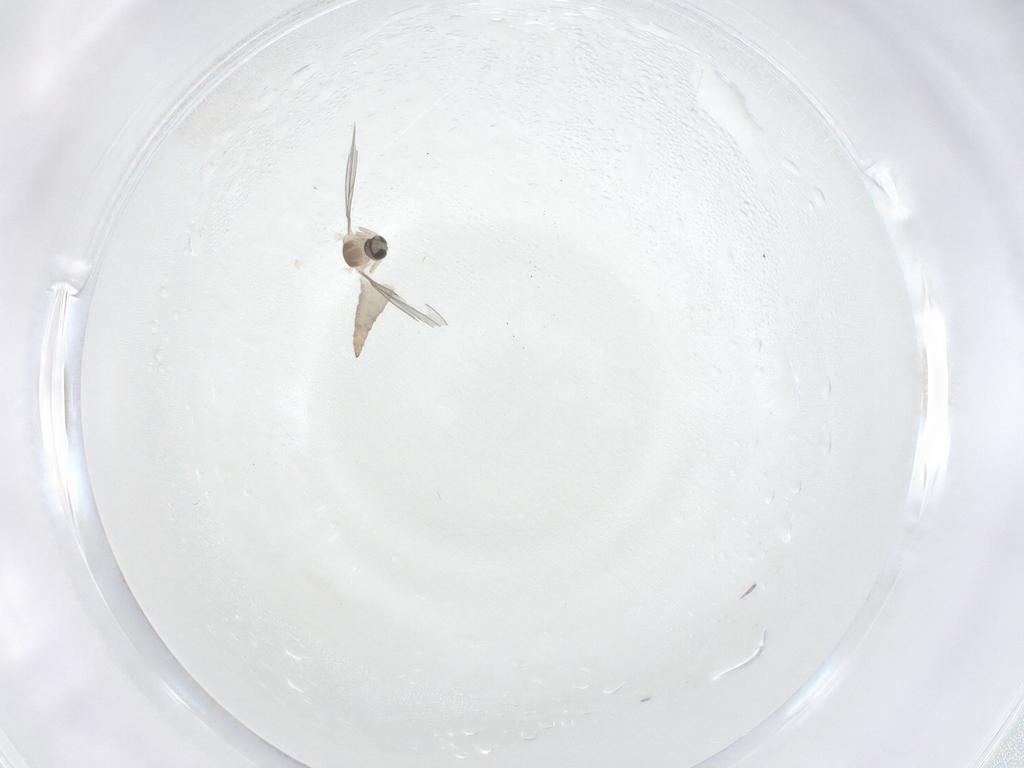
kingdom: Animalia
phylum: Arthropoda
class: Insecta
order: Diptera
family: Cecidomyiidae
